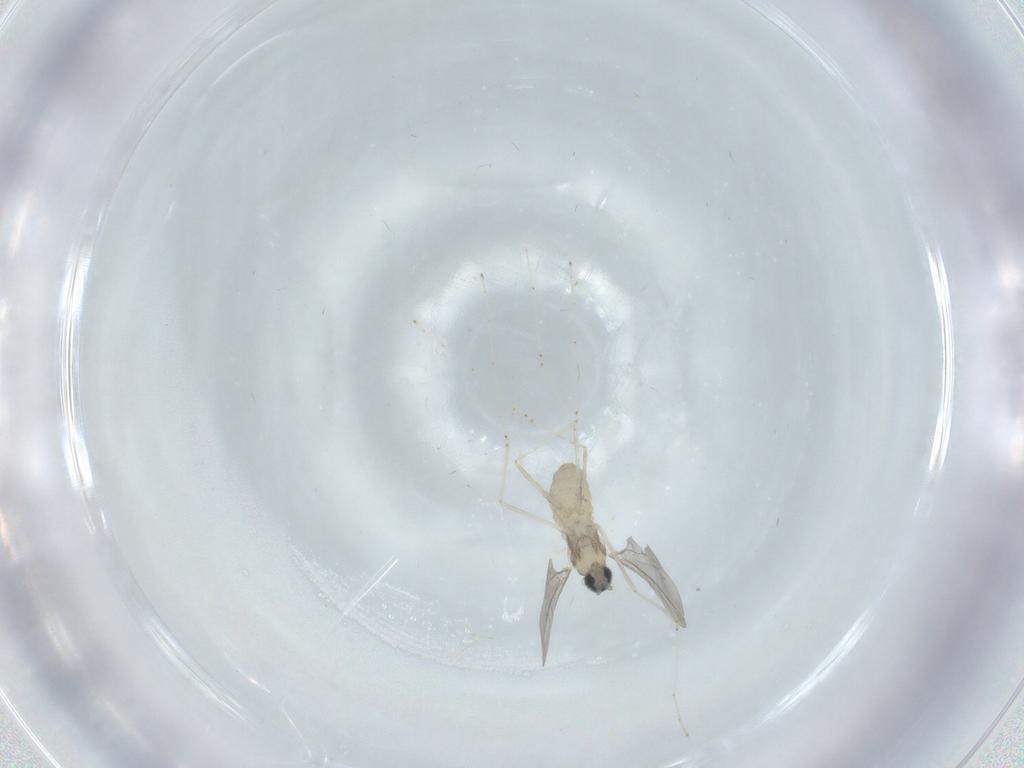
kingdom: Animalia
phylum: Arthropoda
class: Insecta
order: Diptera
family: Cecidomyiidae
